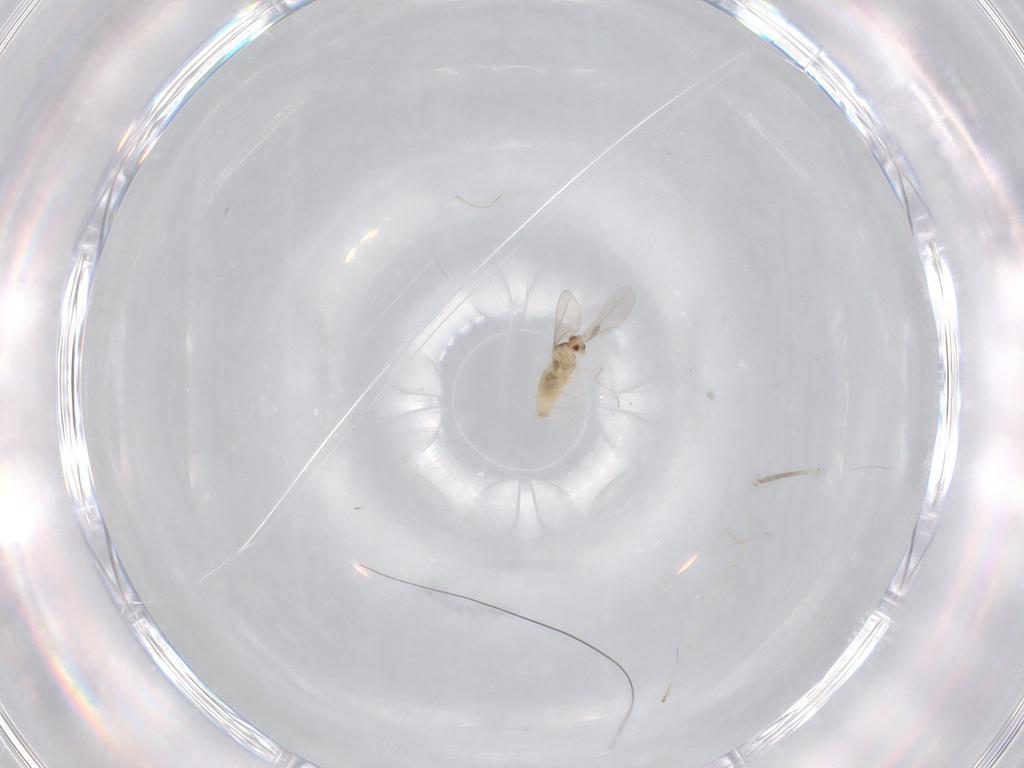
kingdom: Animalia
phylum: Arthropoda
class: Insecta
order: Diptera
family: Cecidomyiidae
